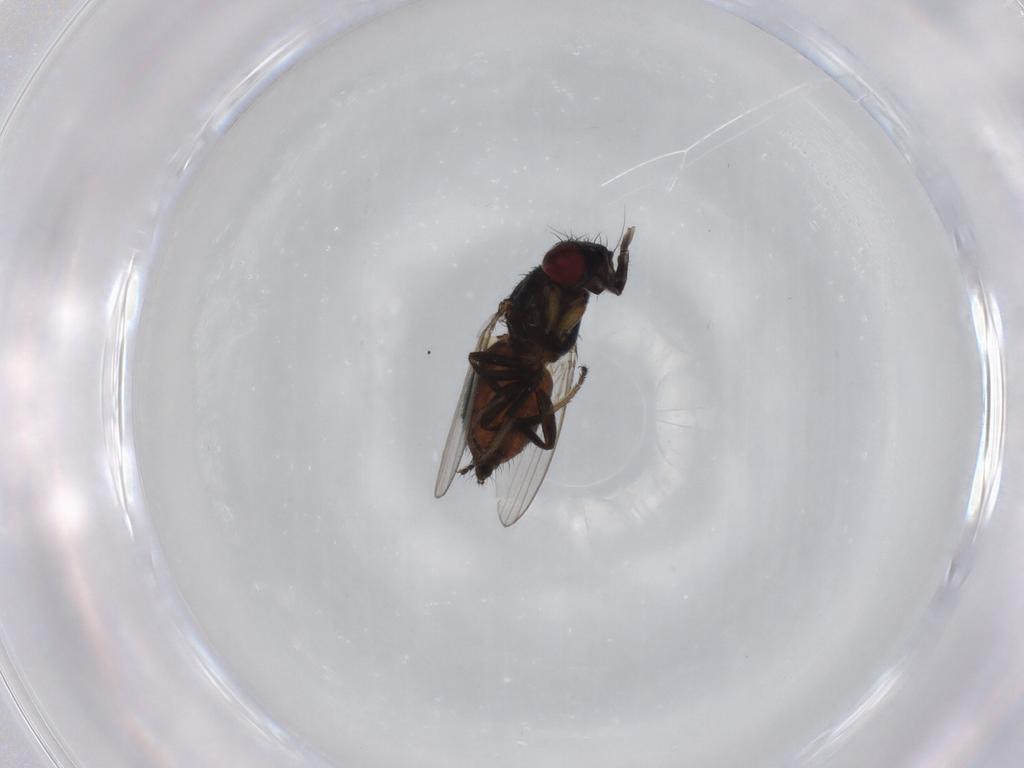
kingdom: Animalia
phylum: Arthropoda
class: Insecta
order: Diptera
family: Milichiidae
